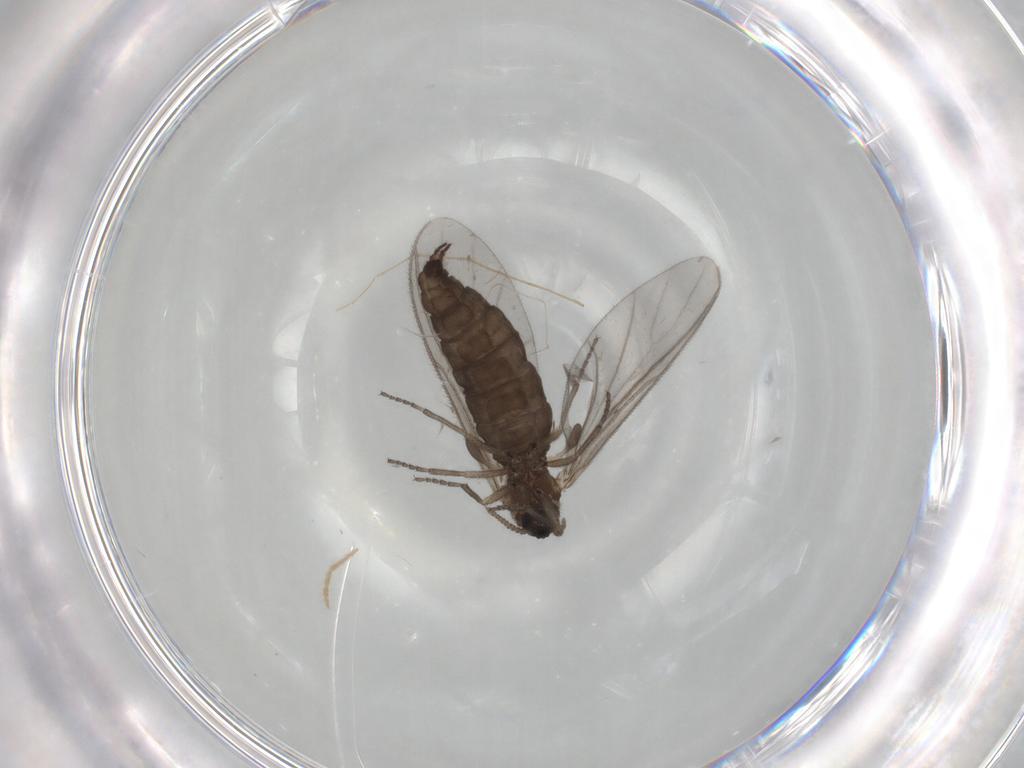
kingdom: Animalia
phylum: Arthropoda
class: Insecta
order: Diptera
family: Sciaridae
